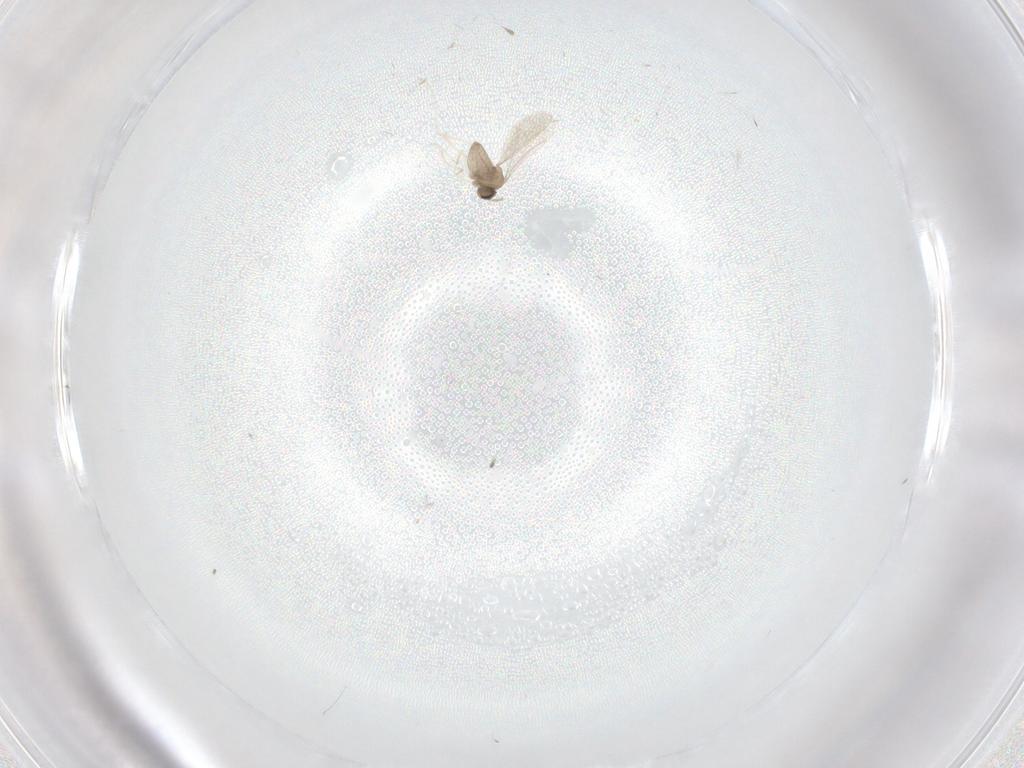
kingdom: Animalia
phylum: Arthropoda
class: Insecta
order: Diptera
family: Cecidomyiidae
